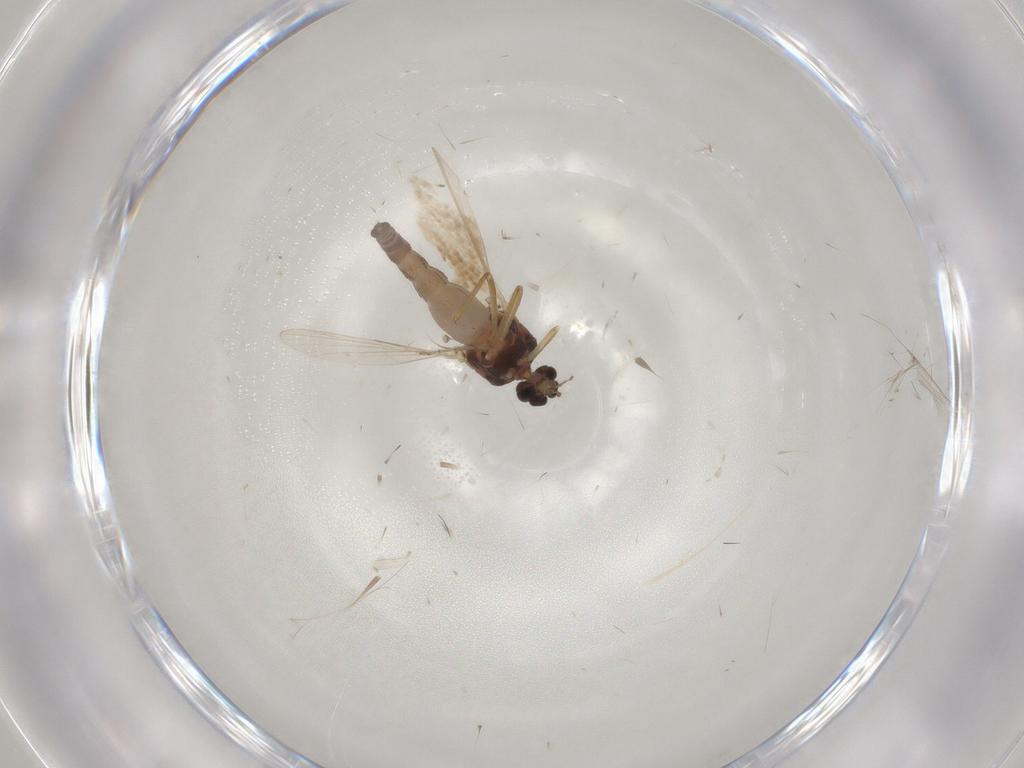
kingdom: Animalia
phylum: Arthropoda
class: Insecta
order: Diptera
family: Ceratopogonidae
